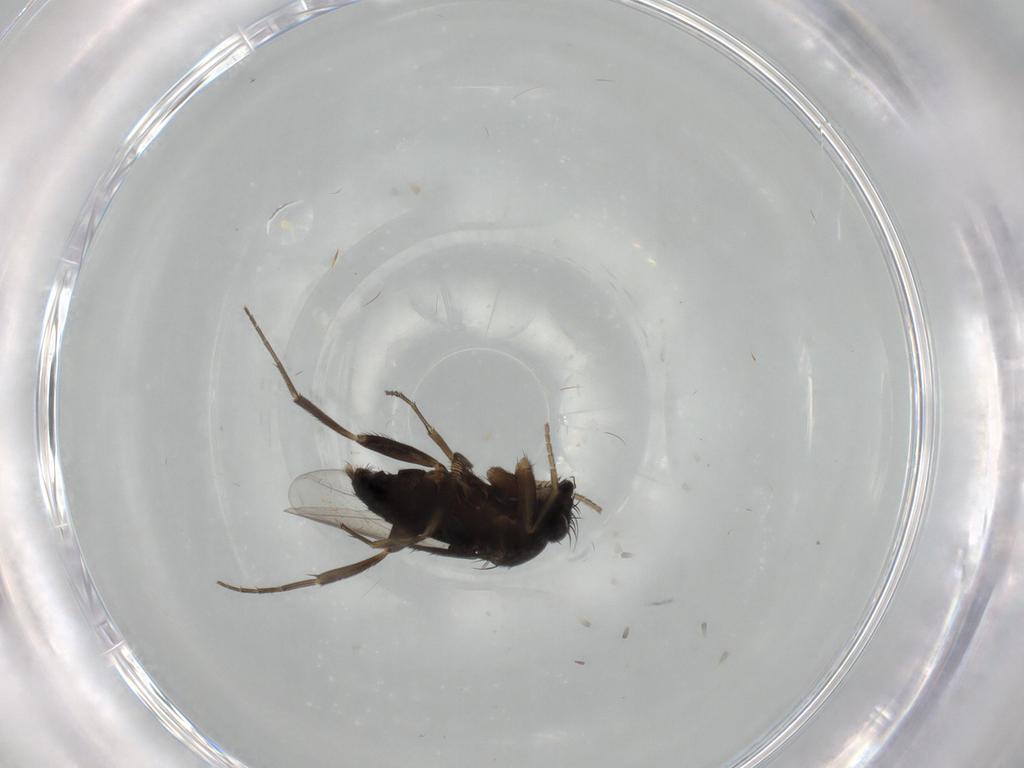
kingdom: Animalia
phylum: Arthropoda
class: Insecta
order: Diptera
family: Phoridae
